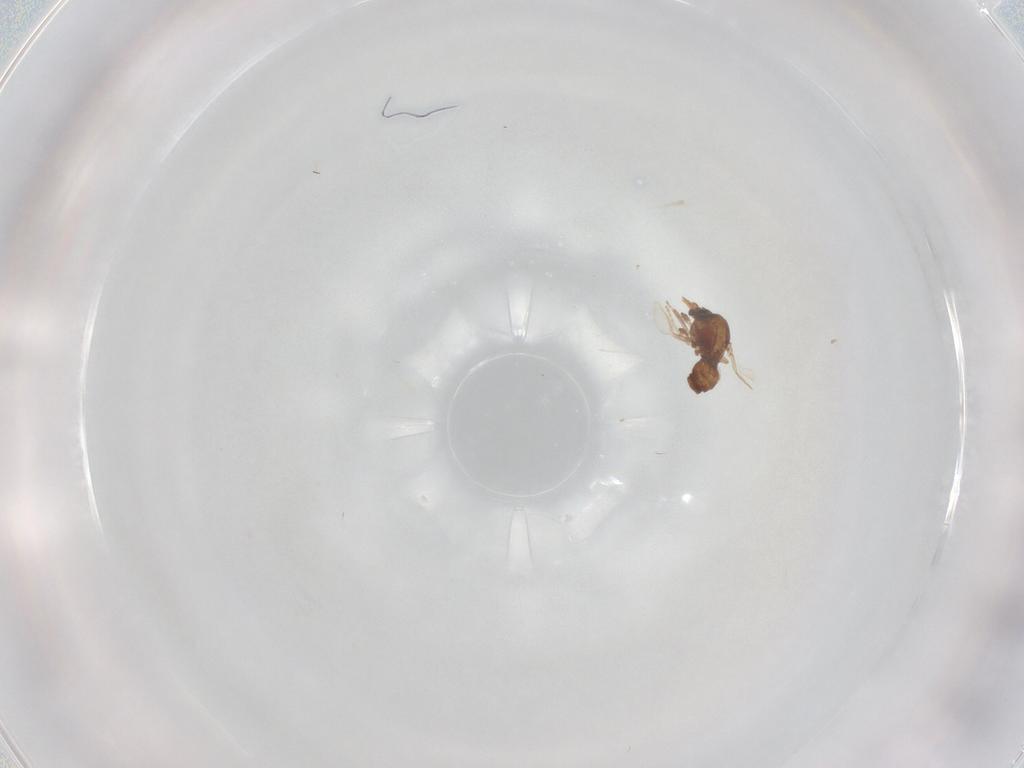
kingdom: Animalia
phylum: Arthropoda
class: Insecta
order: Diptera
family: Ceratopogonidae
